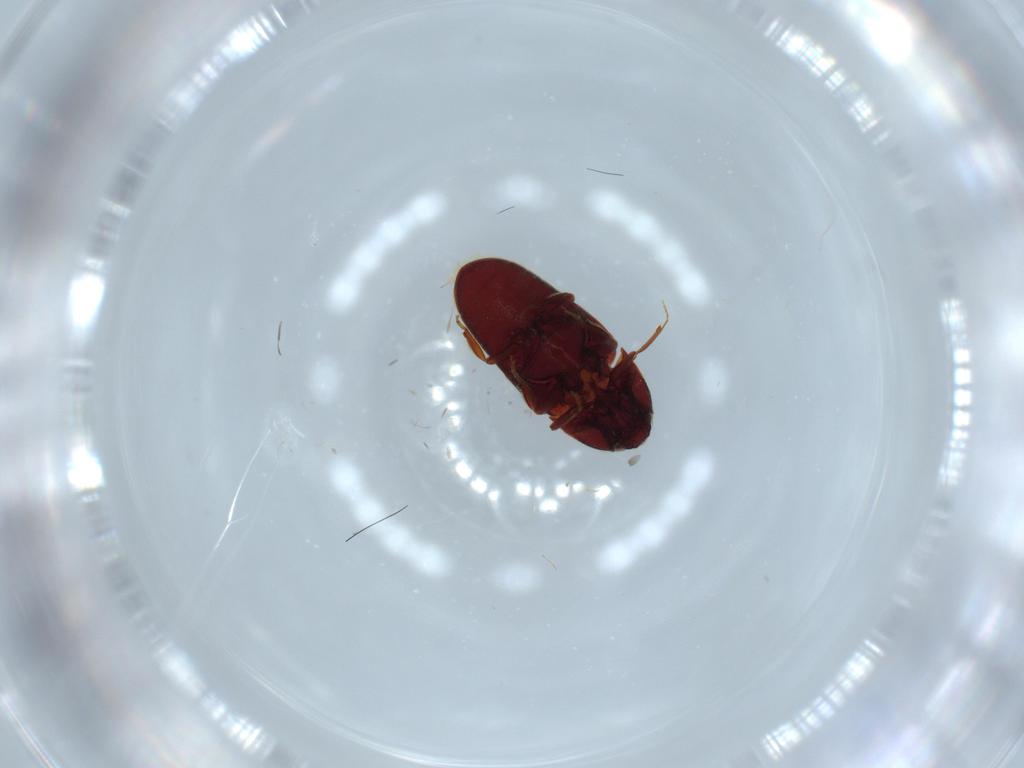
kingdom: Animalia
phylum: Arthropoda
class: Insecta
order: Coleoptera
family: Throscidae
